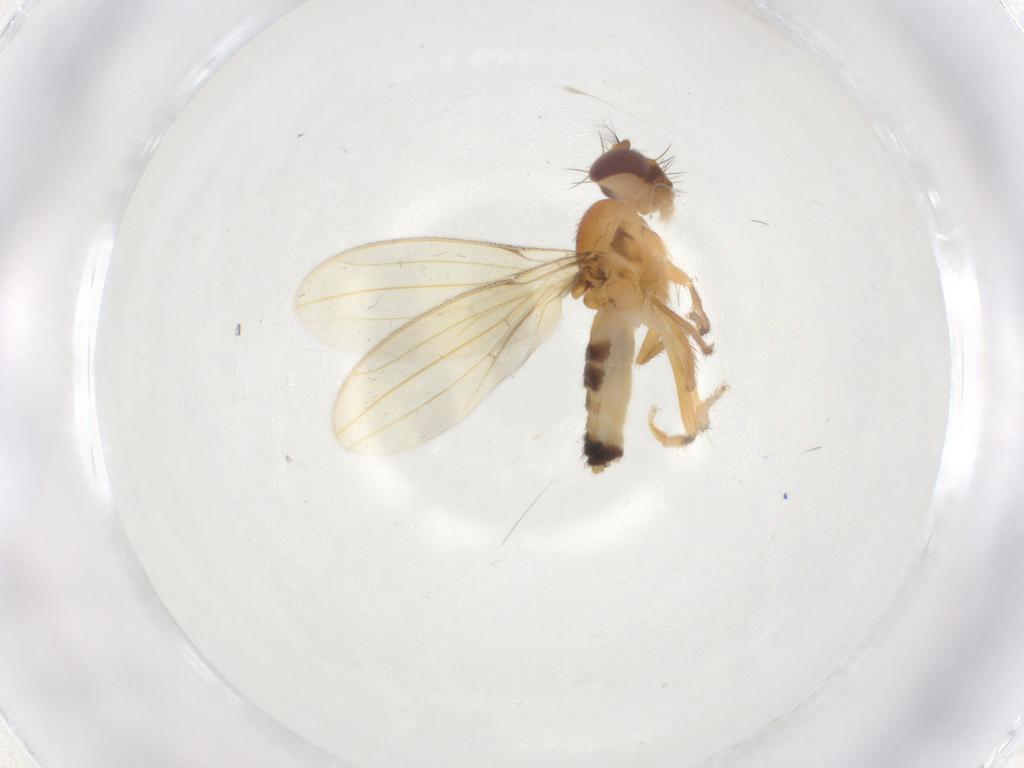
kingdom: Animalia
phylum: Arthropoda
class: Insecta
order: Diptera
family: Periscelididae
